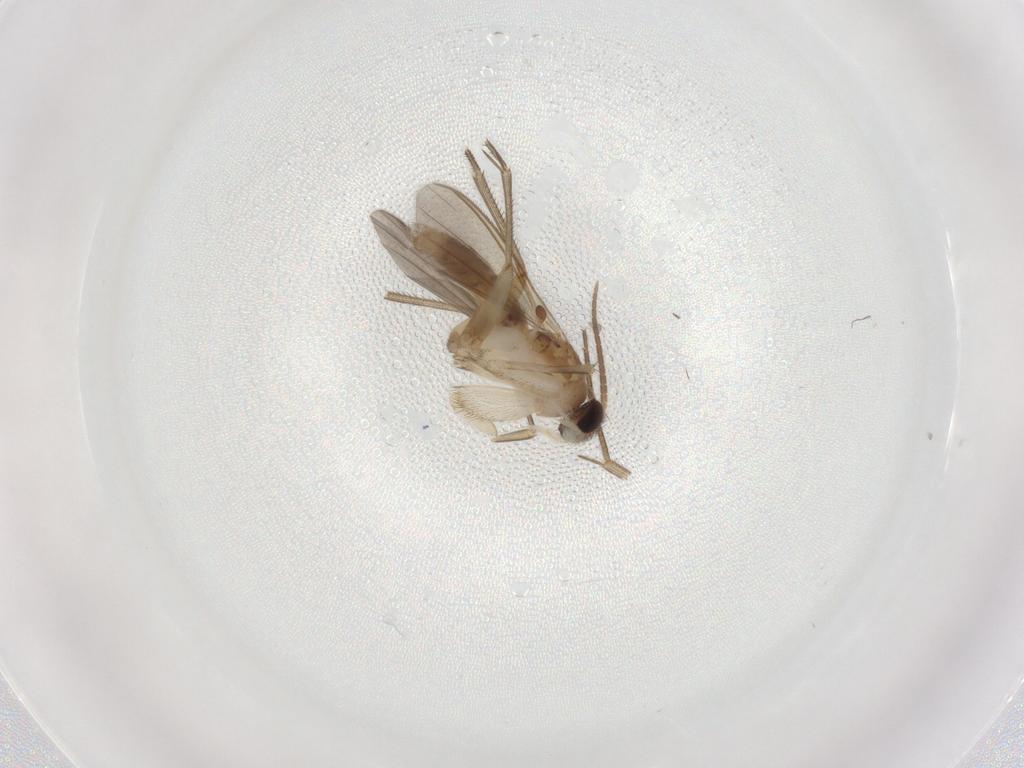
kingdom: Animalia
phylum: Arthropoda
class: Insecta
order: Diptera
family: Mycetophilidae
